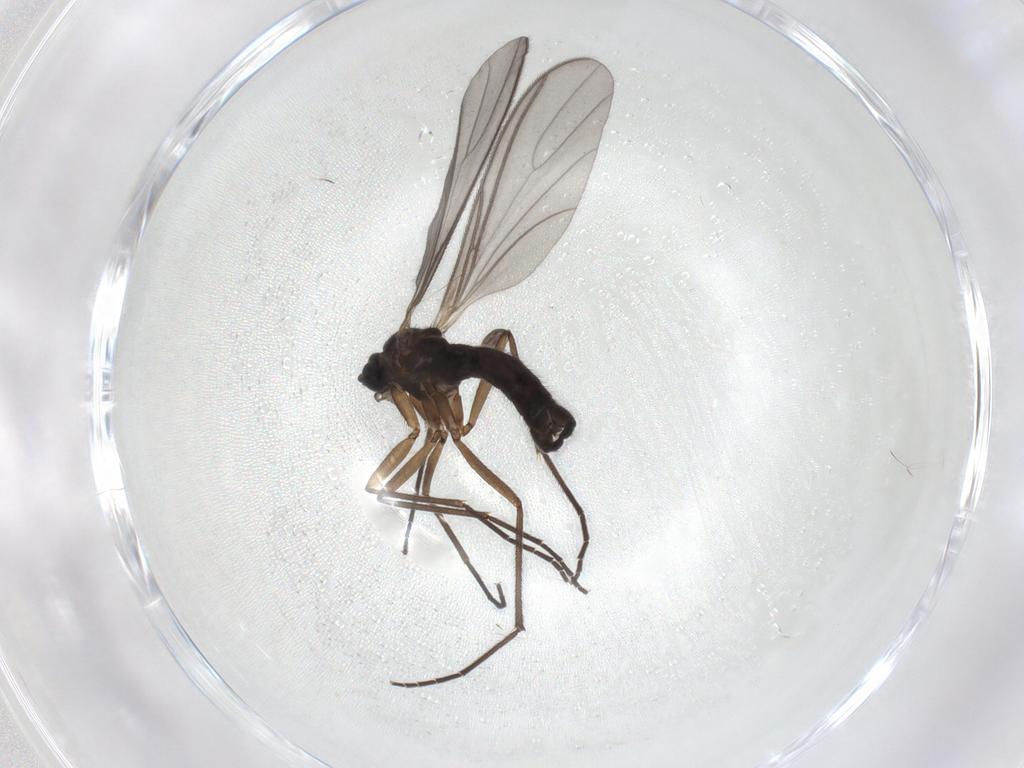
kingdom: Animalia
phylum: Arthropoda
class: Insecta
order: Diptera
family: Sciaridae
